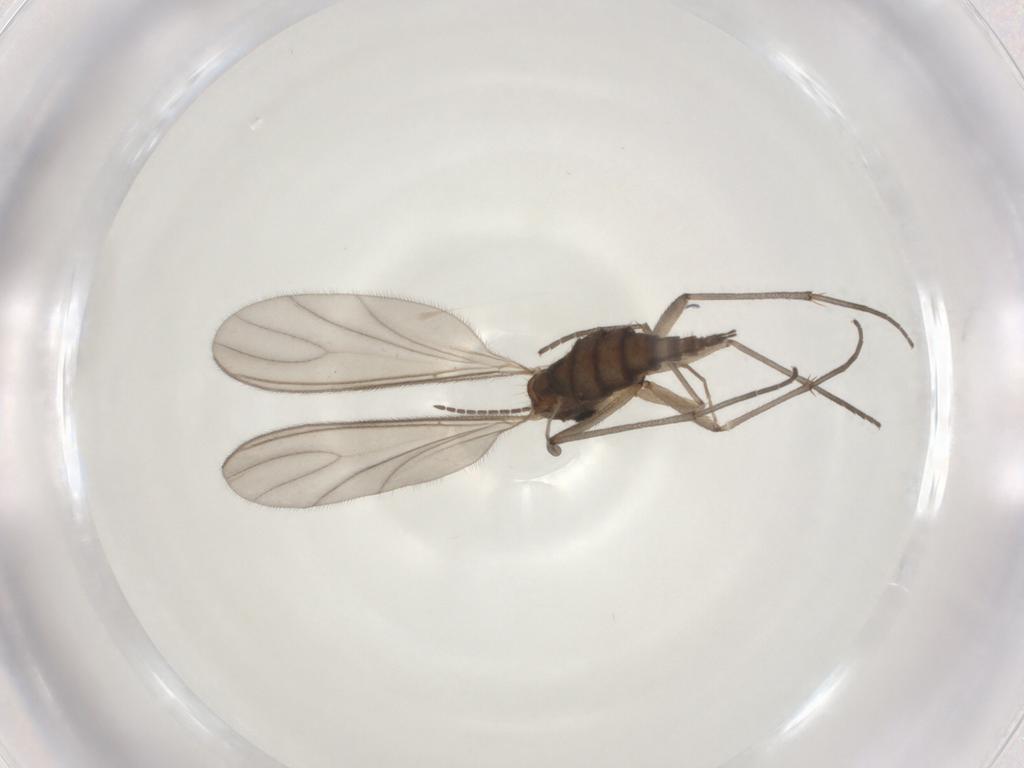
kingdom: Animalia
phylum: Arthropoda
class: Insecta
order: Diptera
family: Sciaridae
